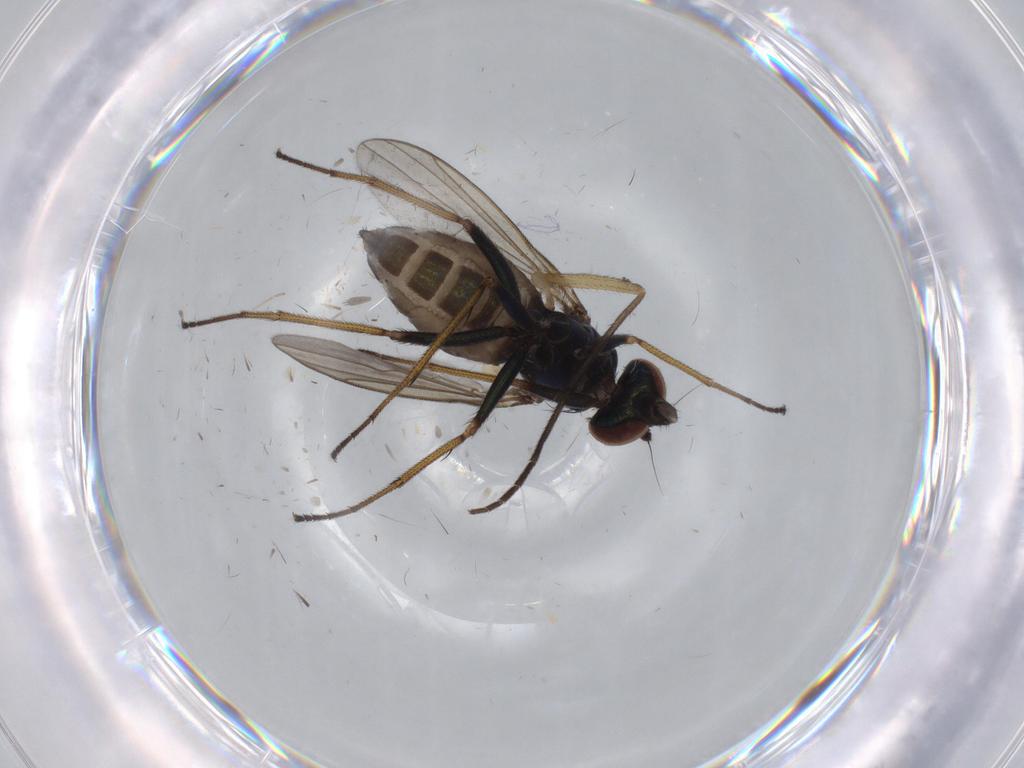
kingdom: Animalia
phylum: Arthropoda
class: Insecta
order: Diptera
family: Dolichopodidae
